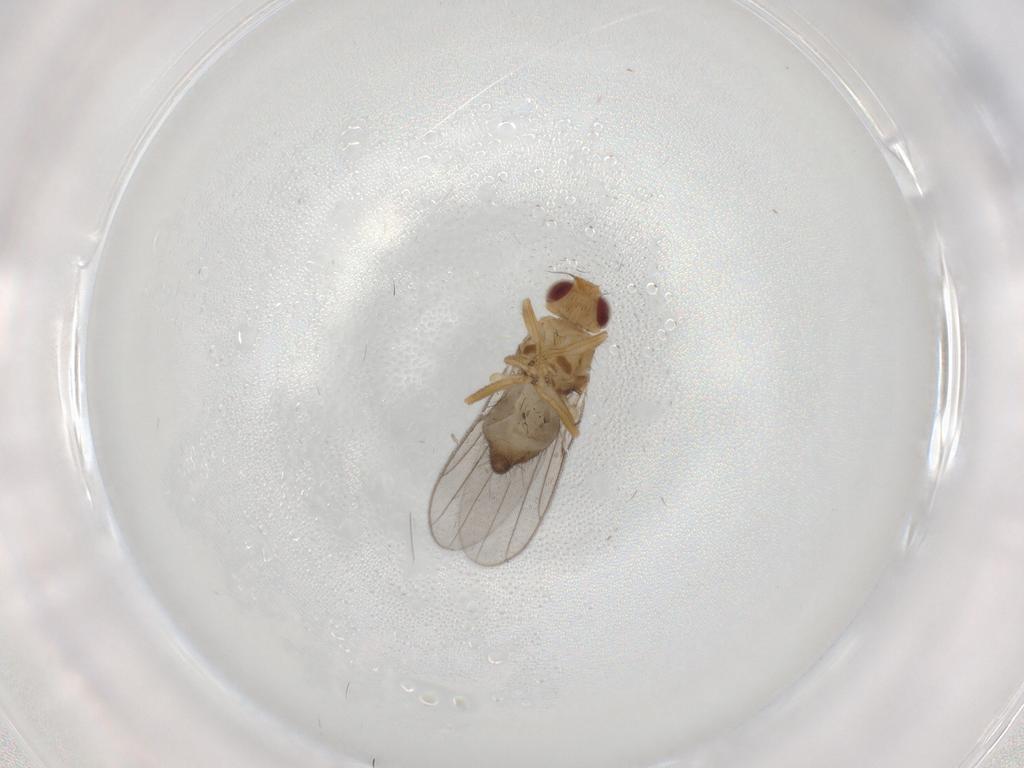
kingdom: Animalia
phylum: Arthropoda
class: Insecta
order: Diptera
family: Chloropidae
